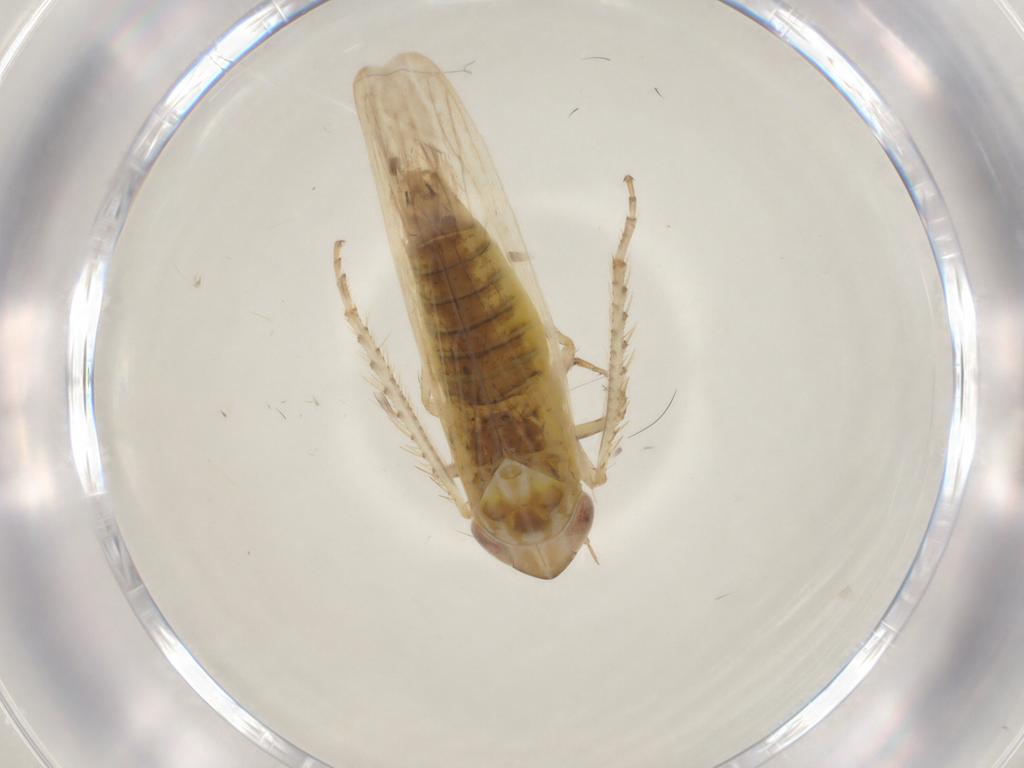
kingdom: Animalia
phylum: Arthropoda
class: Insecta
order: Hemiptera
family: Cicadellidae
